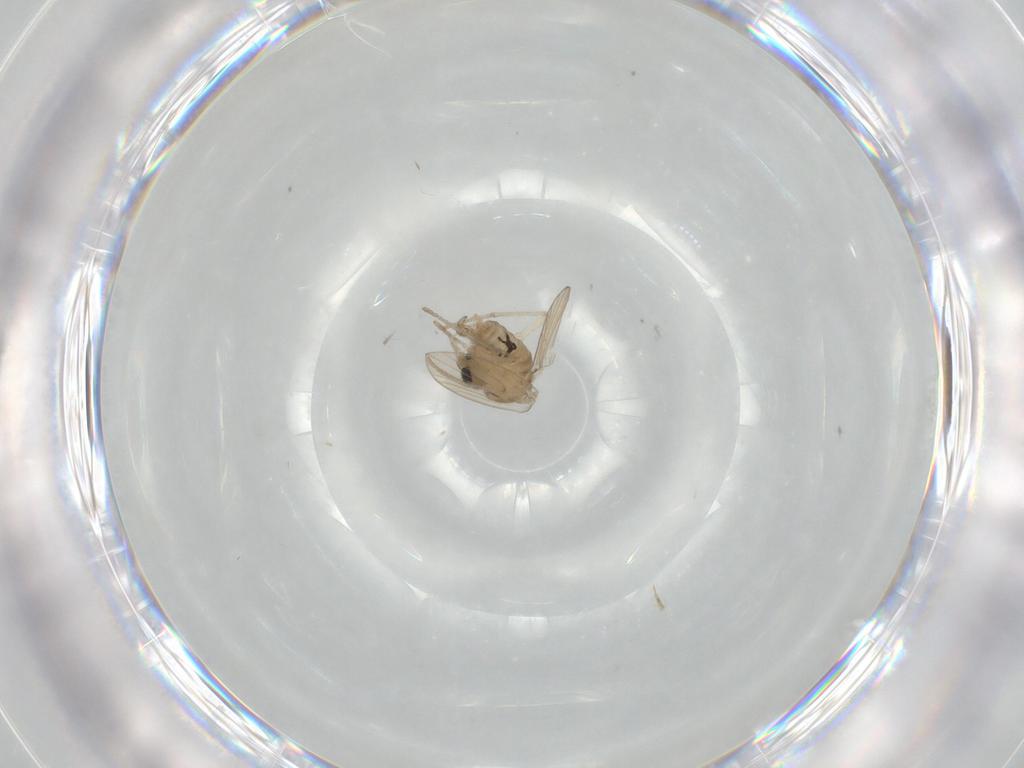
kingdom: Animalia
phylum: Arthropoda
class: Insecta
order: Diptera
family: Psychodidae
